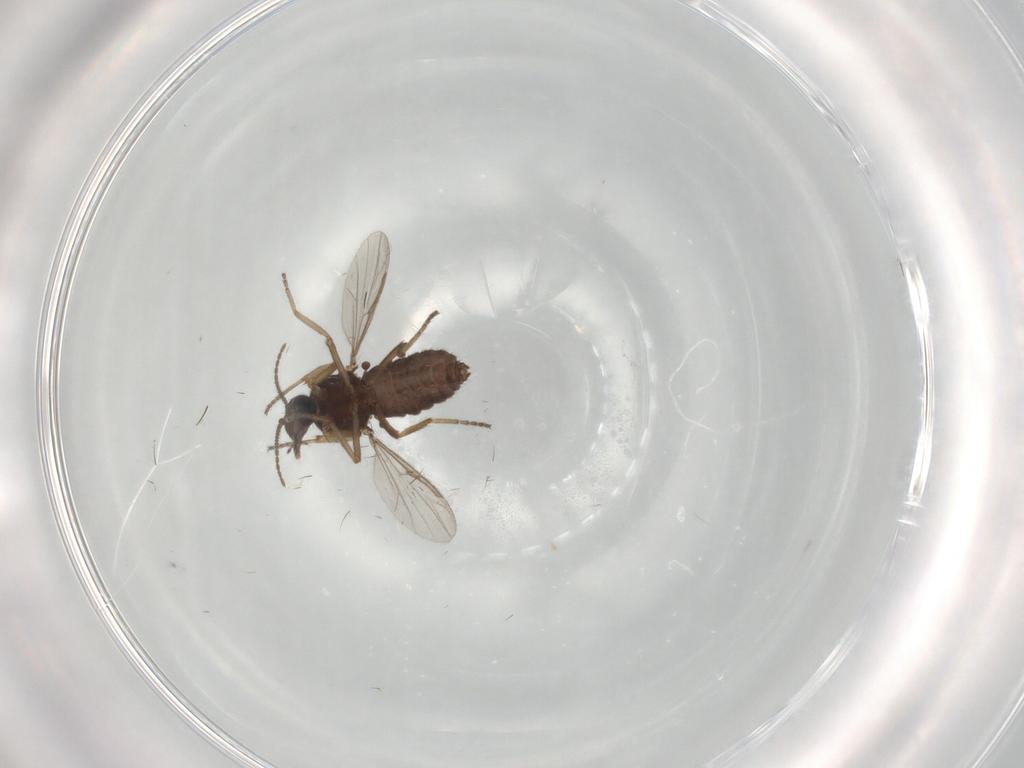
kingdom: Animalia
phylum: Arthropoda
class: Insecta
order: Diptera
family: Ceratopogonidae
